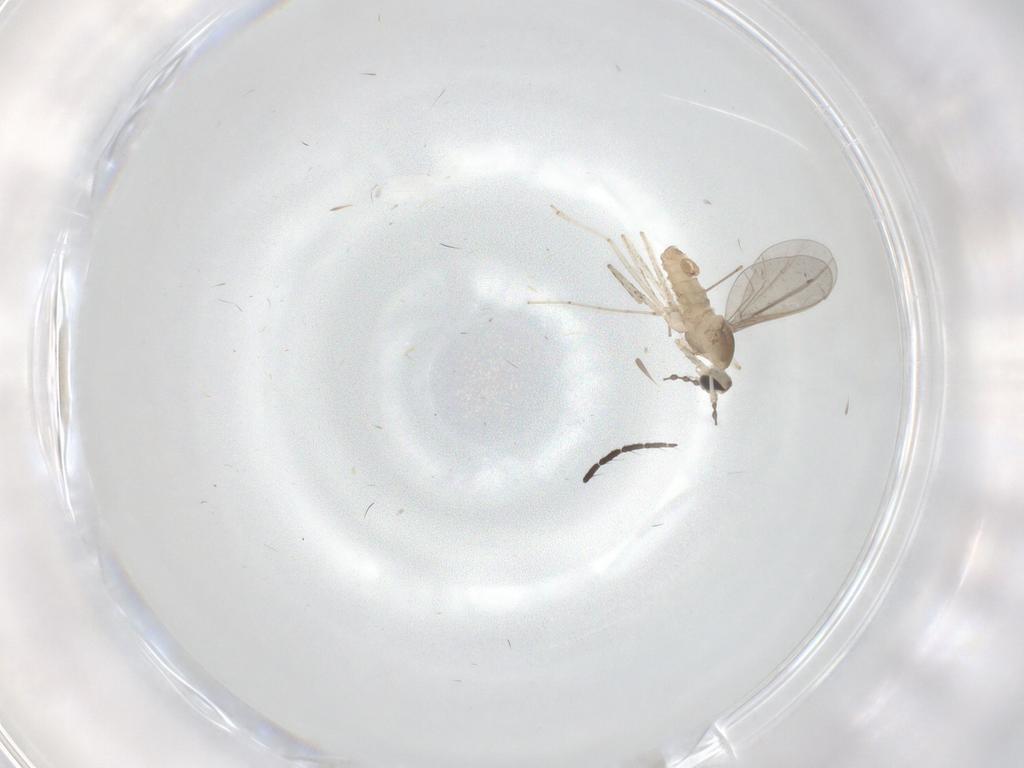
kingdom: Animalia
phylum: Arthropoda
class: Insecta
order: Diptera
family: Cecidomyiidae
